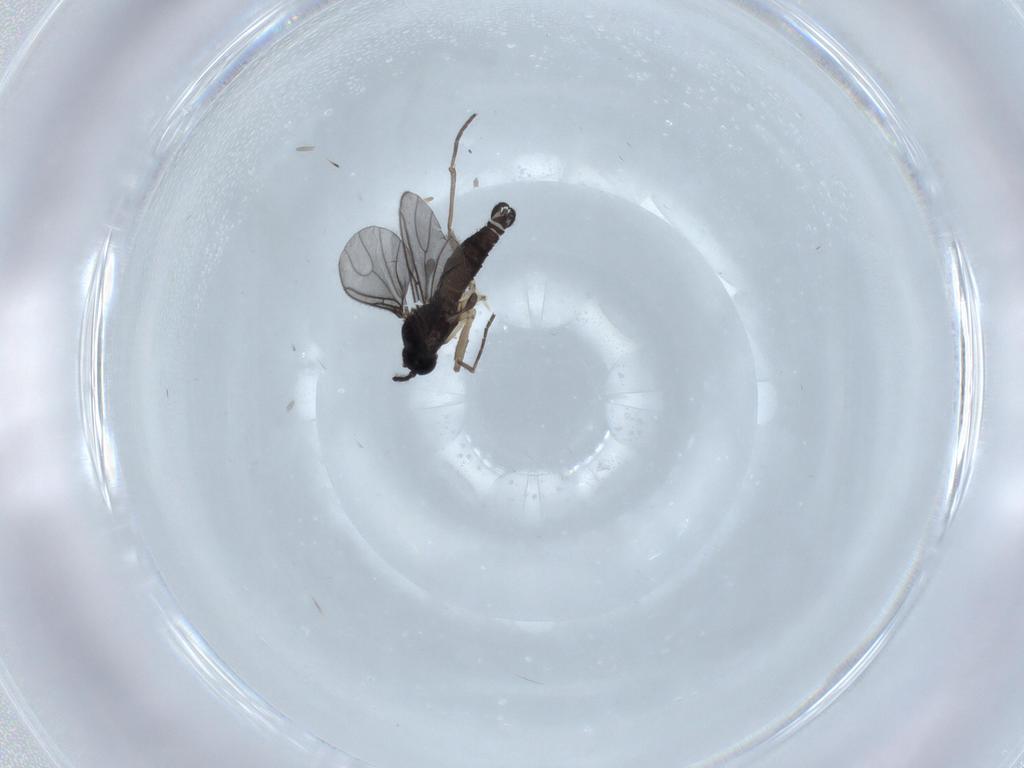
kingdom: Animalia
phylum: Arthropoda
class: Insecta
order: Diptera
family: Sciaridae
